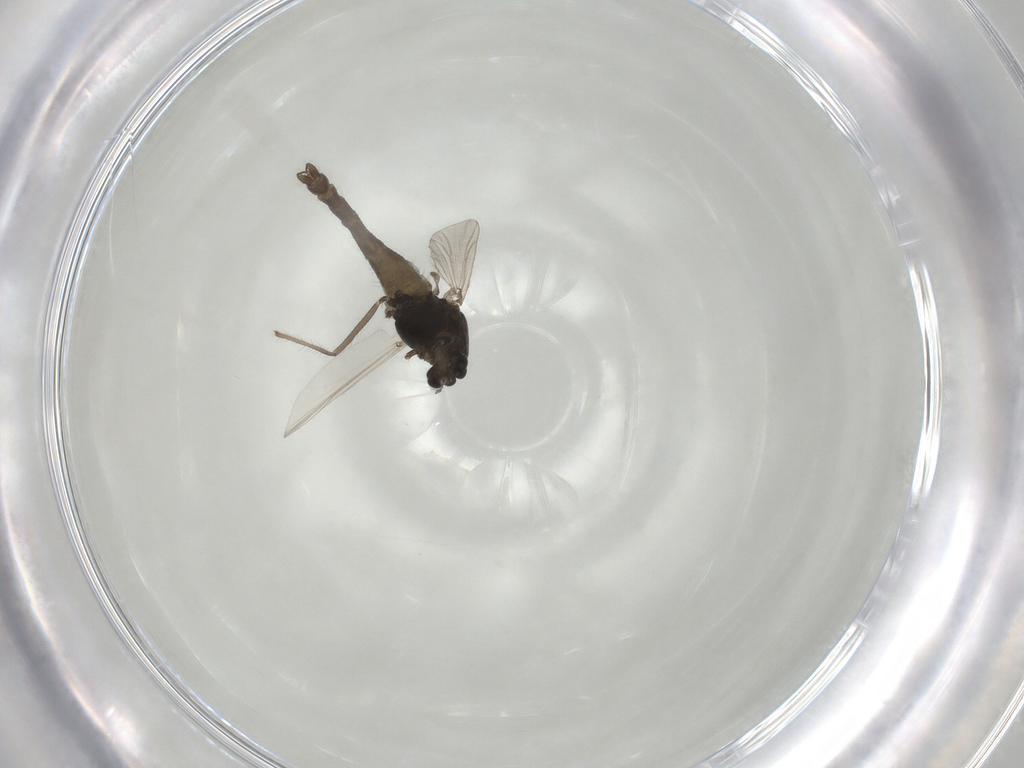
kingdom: Animalia
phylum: Arthropoda
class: Insecta
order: Diptera
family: Chironomidae
